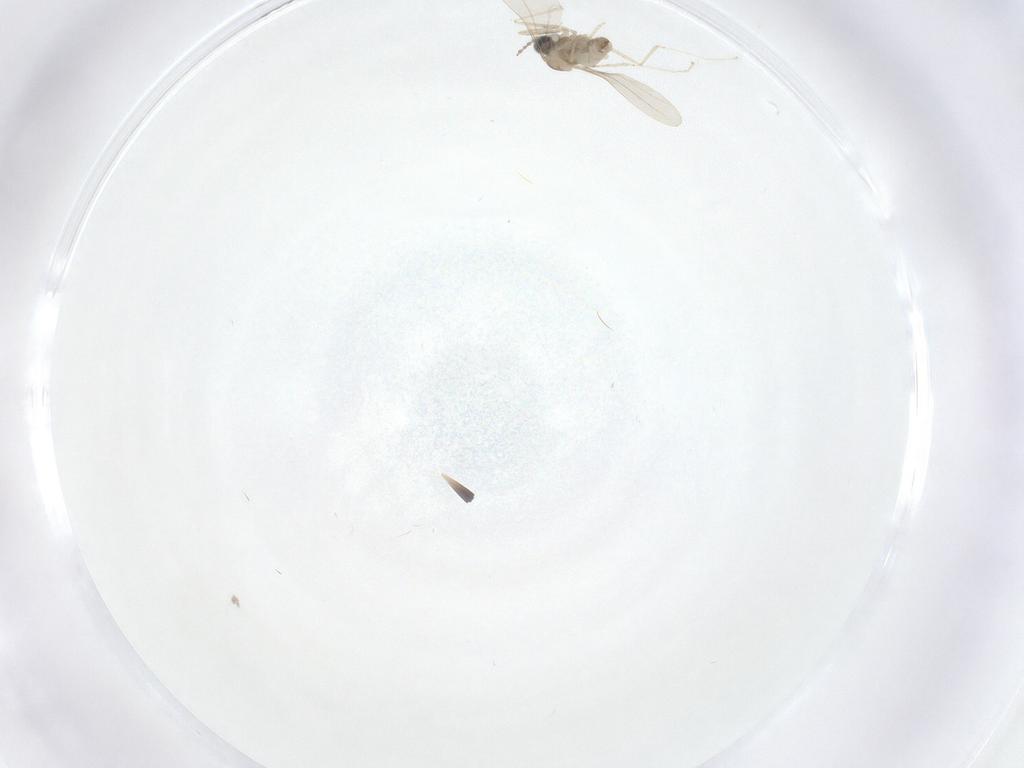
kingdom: Animalia
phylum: Arthropoda
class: Insecta
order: Diptera
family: Cecidomyiidae
